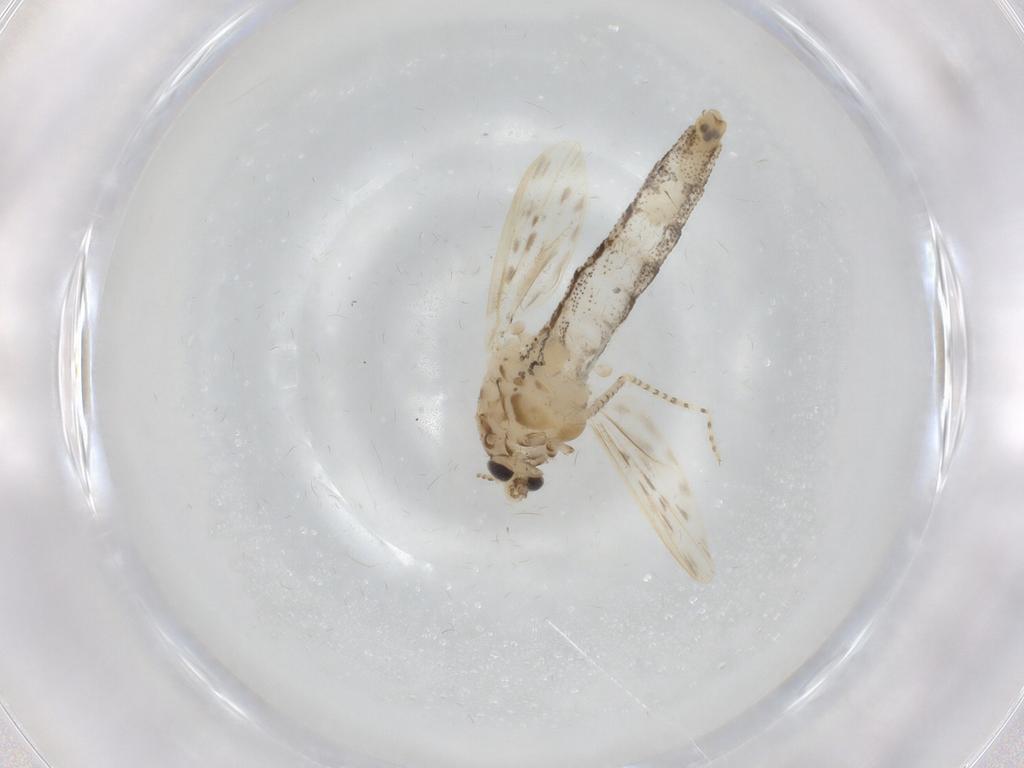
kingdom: Animalia
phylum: Arthropoda
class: Insecta
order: Diptera
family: Chaoboridae
